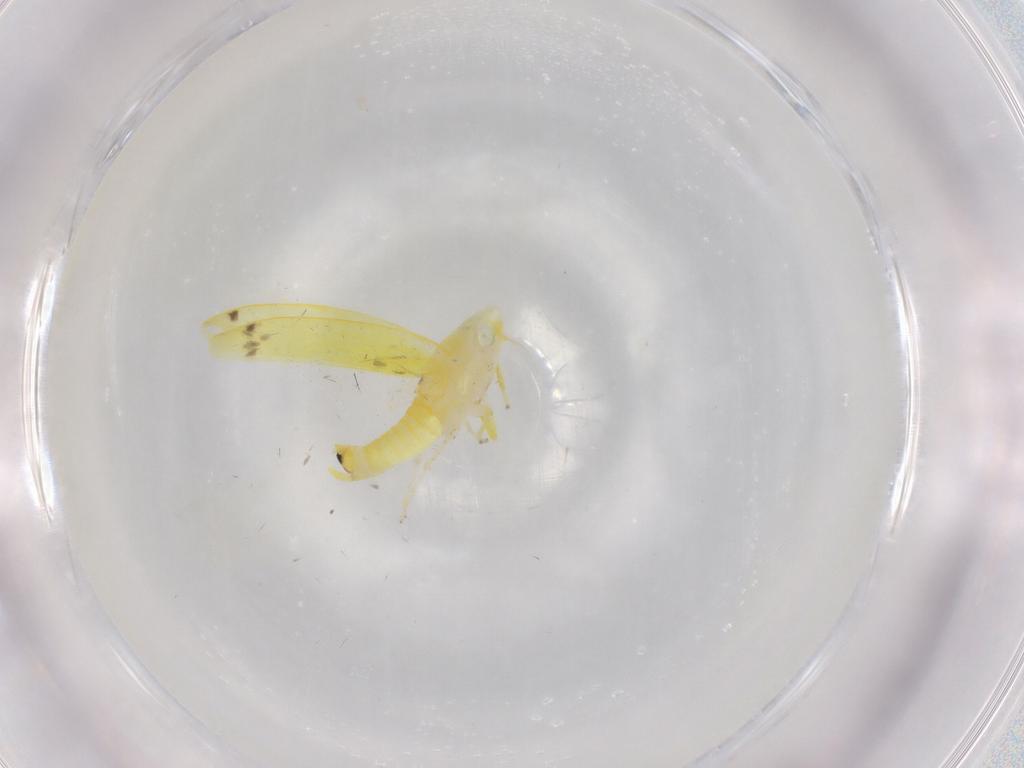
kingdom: Animalia
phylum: Arthropoda
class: Insecta
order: Hemiptera
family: Cicadellidae
